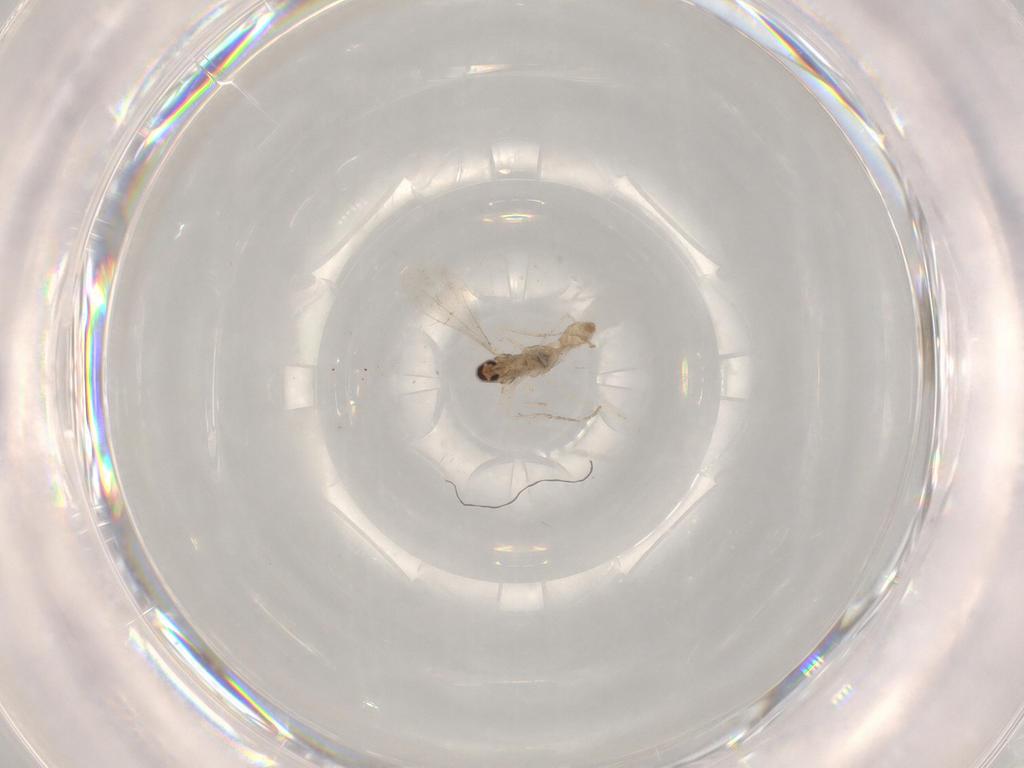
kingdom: Animalia
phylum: Arthropoda
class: Insecta
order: Diptera
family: Cecidomyiidae
